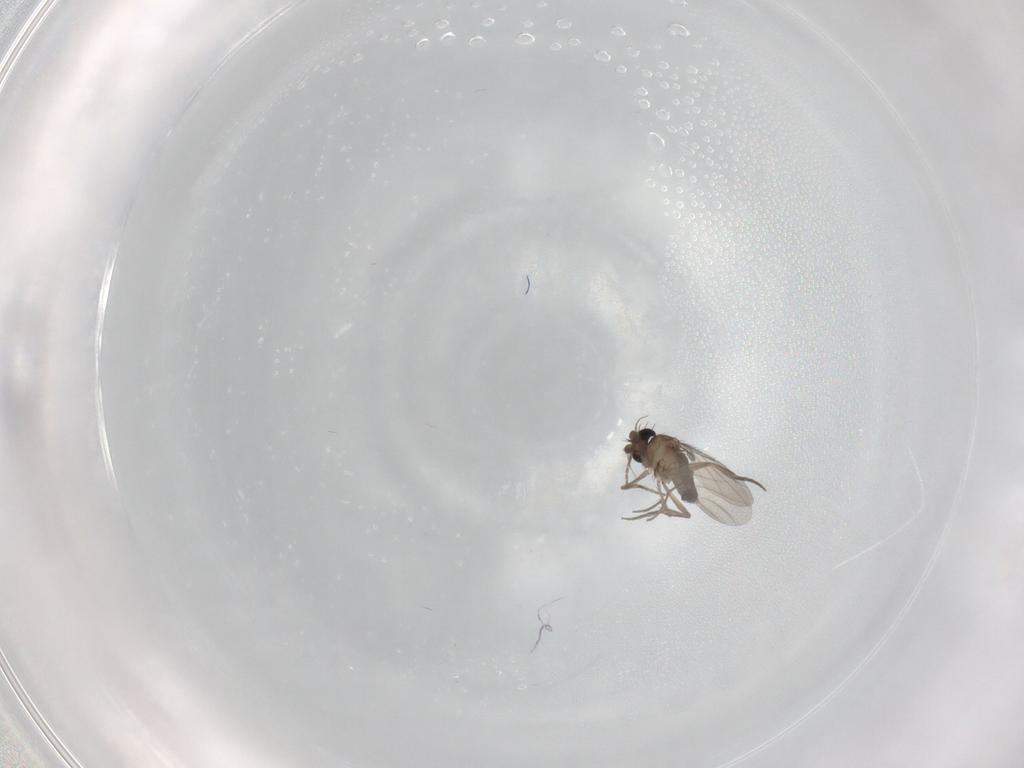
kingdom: Animalia
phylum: Arthropoda
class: Insecta
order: Diptera
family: Phoridae
